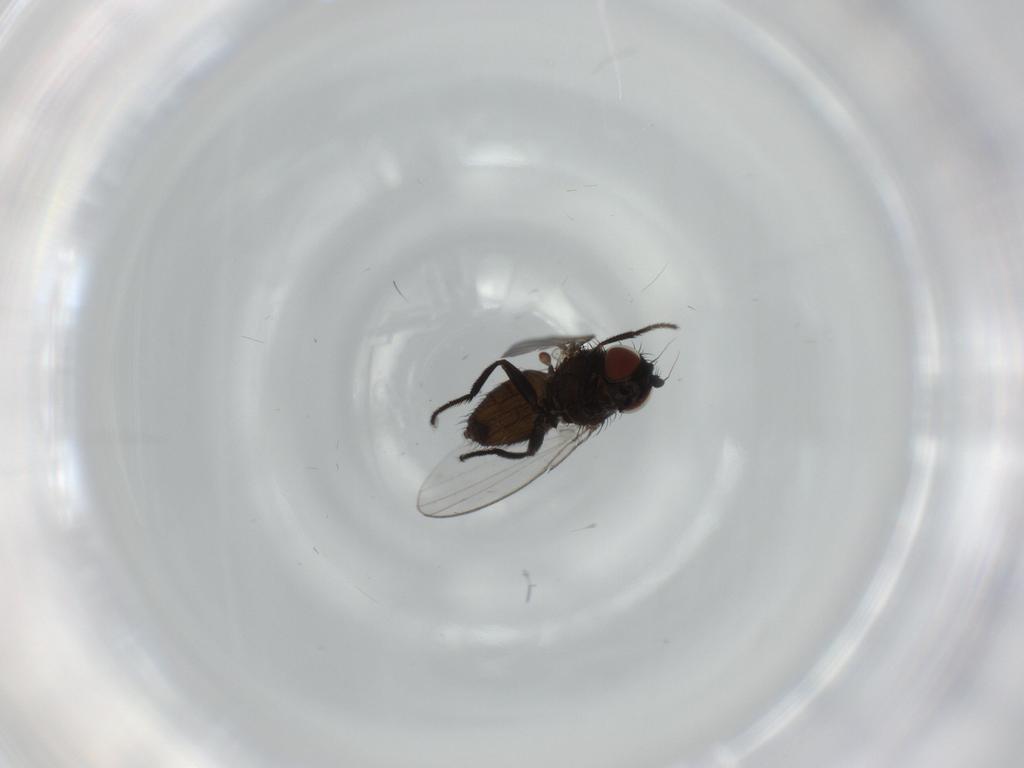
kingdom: Animalia
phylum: Arthropoda
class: Insecta
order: Diptera
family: Milichiidae
